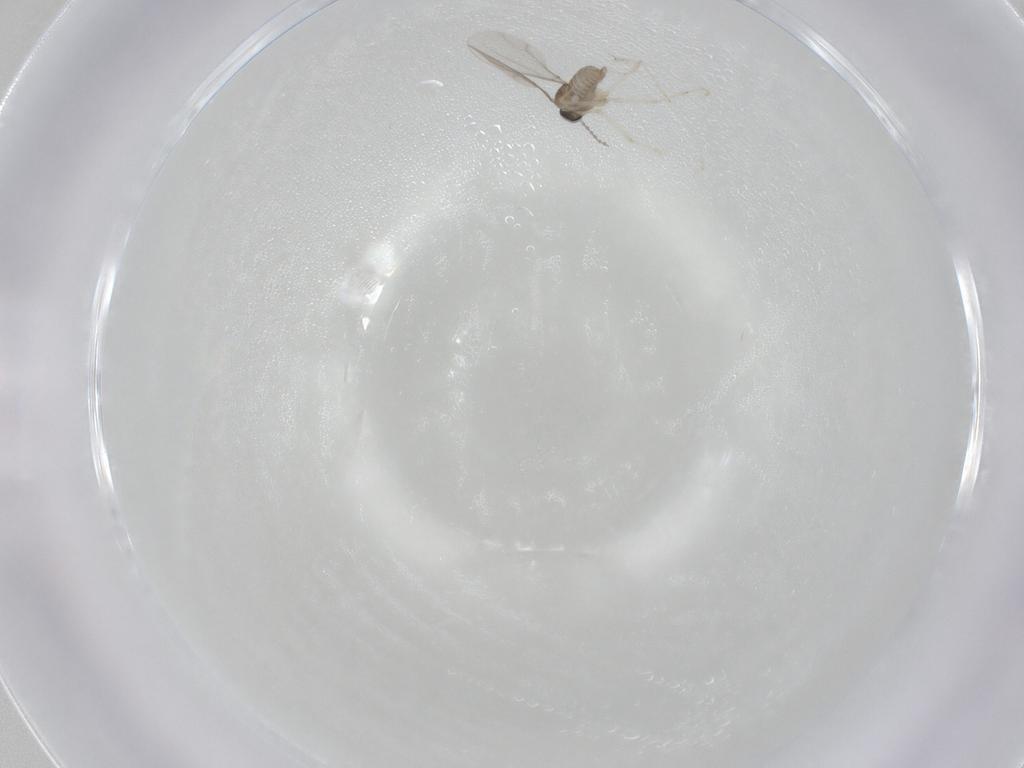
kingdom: Animalia
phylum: Arthropoda
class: Insecta
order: Diptera
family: Cecidomyiidae
